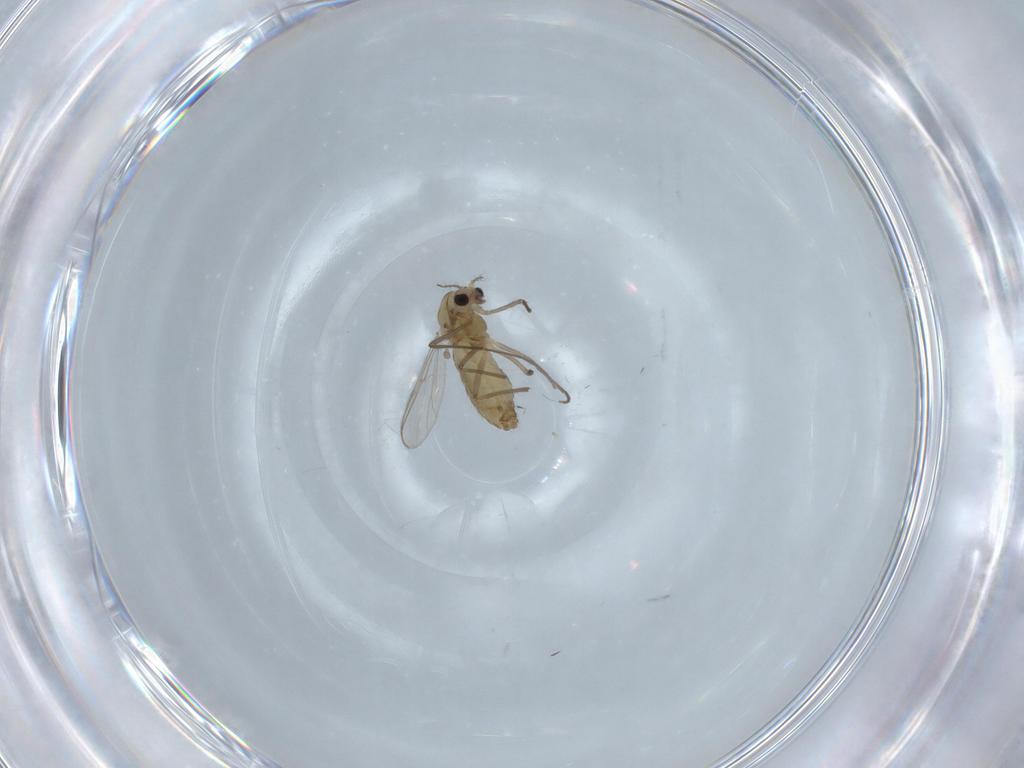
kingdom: Animalia
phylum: Arthropoda
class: Insecta
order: Diptera
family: Chironomidae
